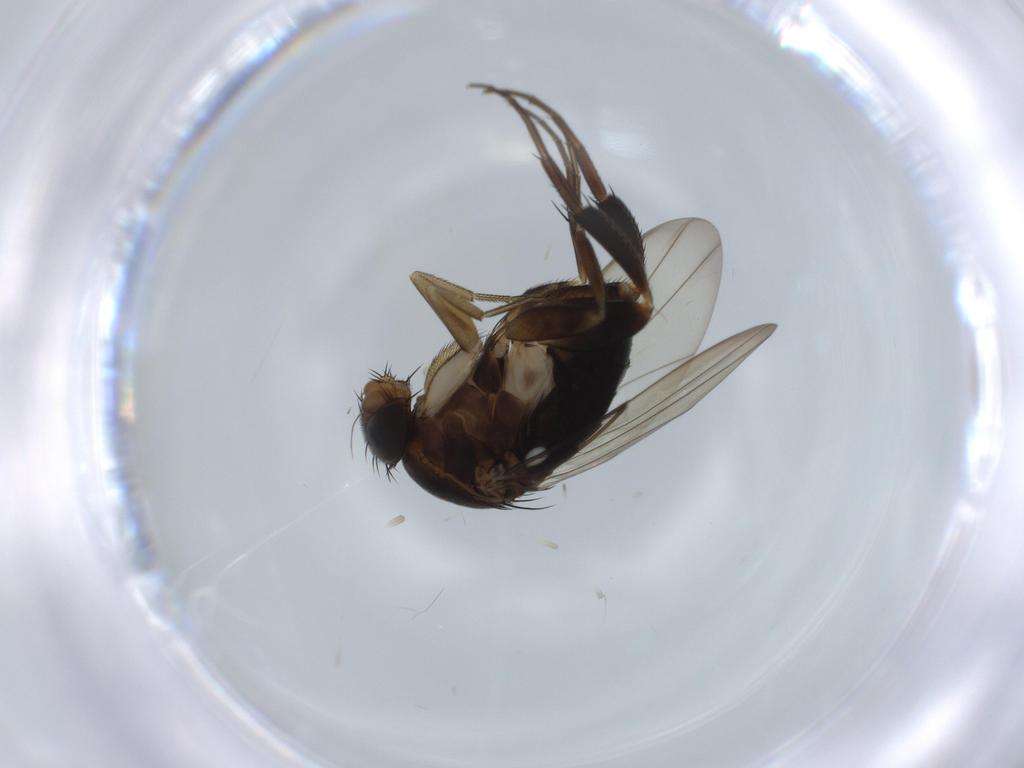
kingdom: Animalia
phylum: Arthropoda
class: Insecta
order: Diptera
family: Phoridae
